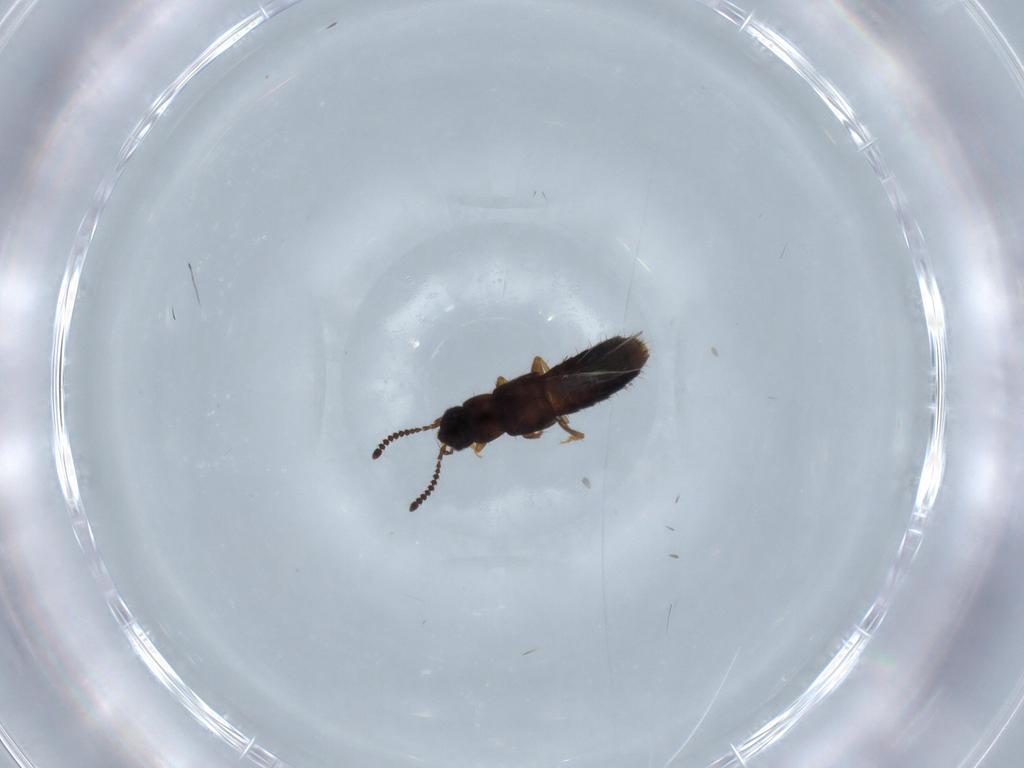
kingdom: Animalia
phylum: Arthropoda
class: Insecta
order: Coleoptera
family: Staphylinidae
